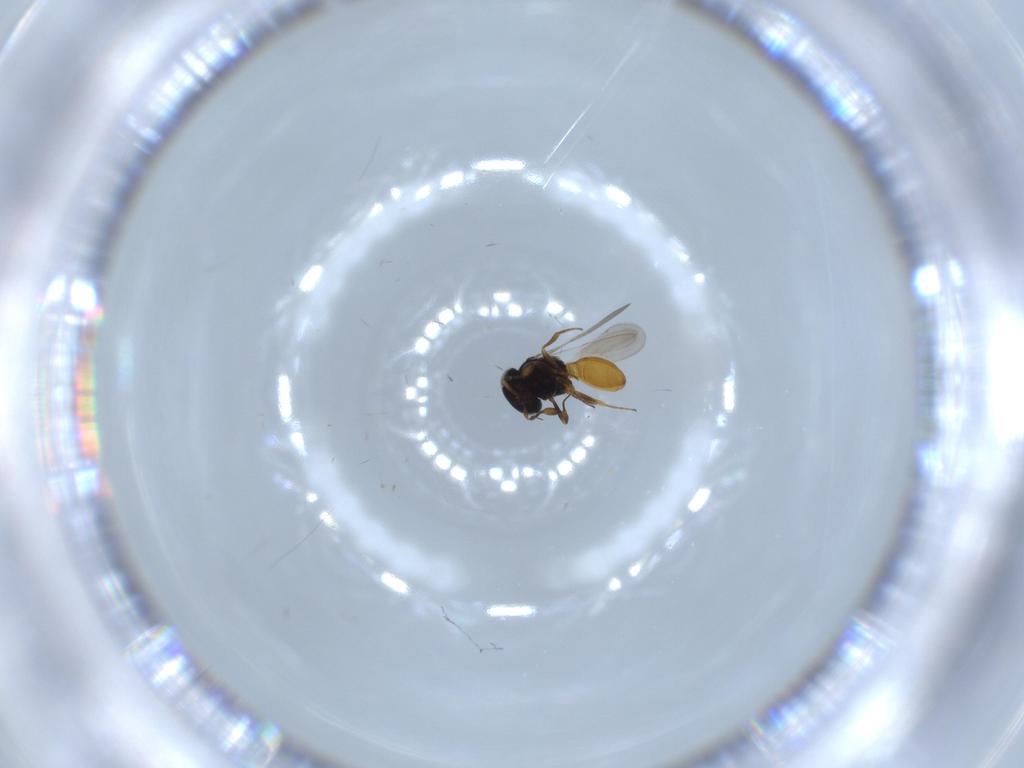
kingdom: Animalia
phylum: Arthropoda
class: Insecta
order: Hymenoptera
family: Scelionidae
